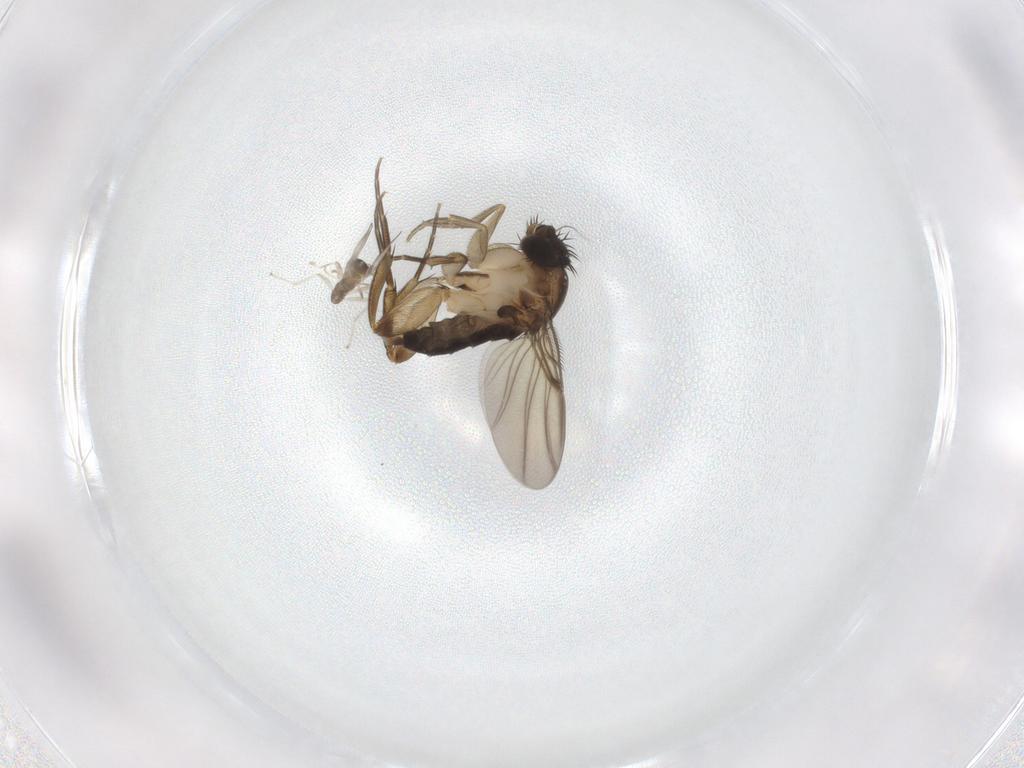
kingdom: Animalia
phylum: Arthropoda
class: Insecta
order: Diptera
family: Phoridae
